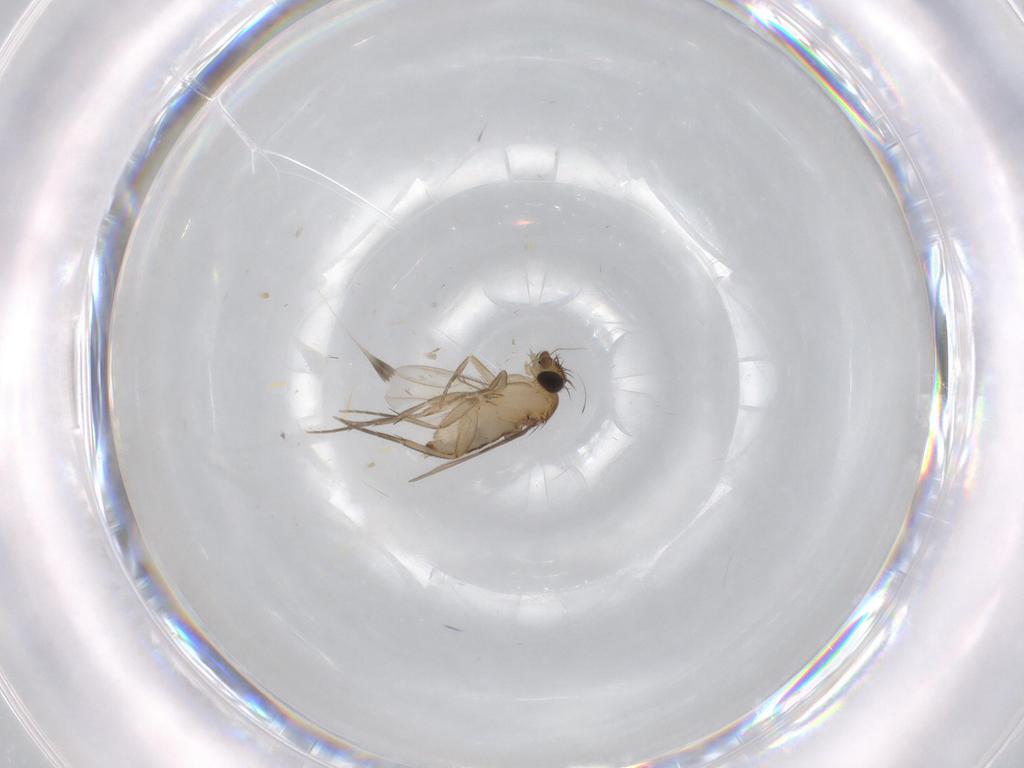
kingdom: Animalia
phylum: Arthropoda
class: Insecta
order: Diptera
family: Phoridae
